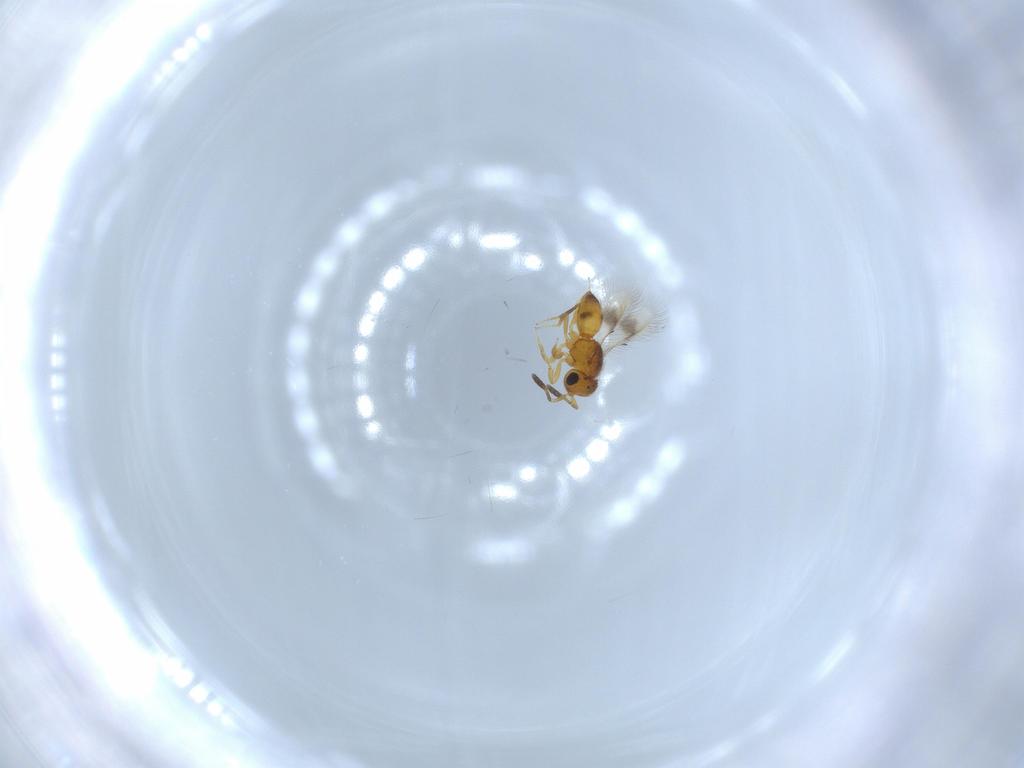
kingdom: Animalia
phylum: Arthropoda
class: Insecta
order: Hymenoptera
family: Scelionidae
